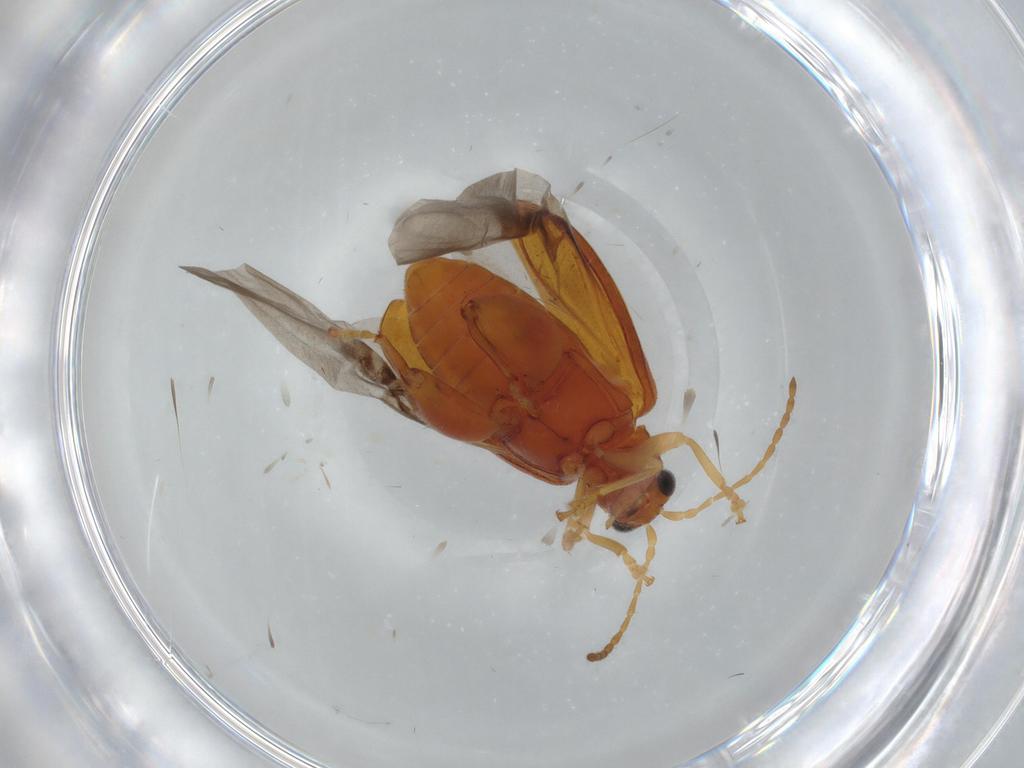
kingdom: Animalia
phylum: Arthropoda
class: Insecta
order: Coleoptera
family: Chrysomelidae
